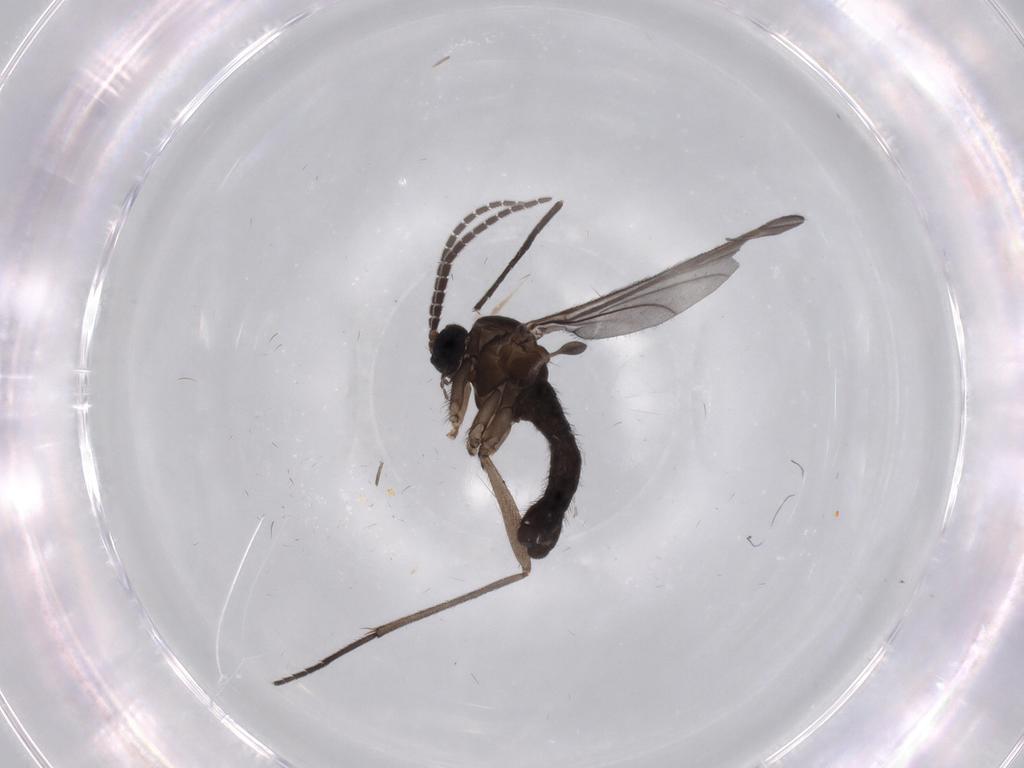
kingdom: Animalia
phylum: Arthropoda
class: Insecta
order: Diptera
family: Sciaridae
